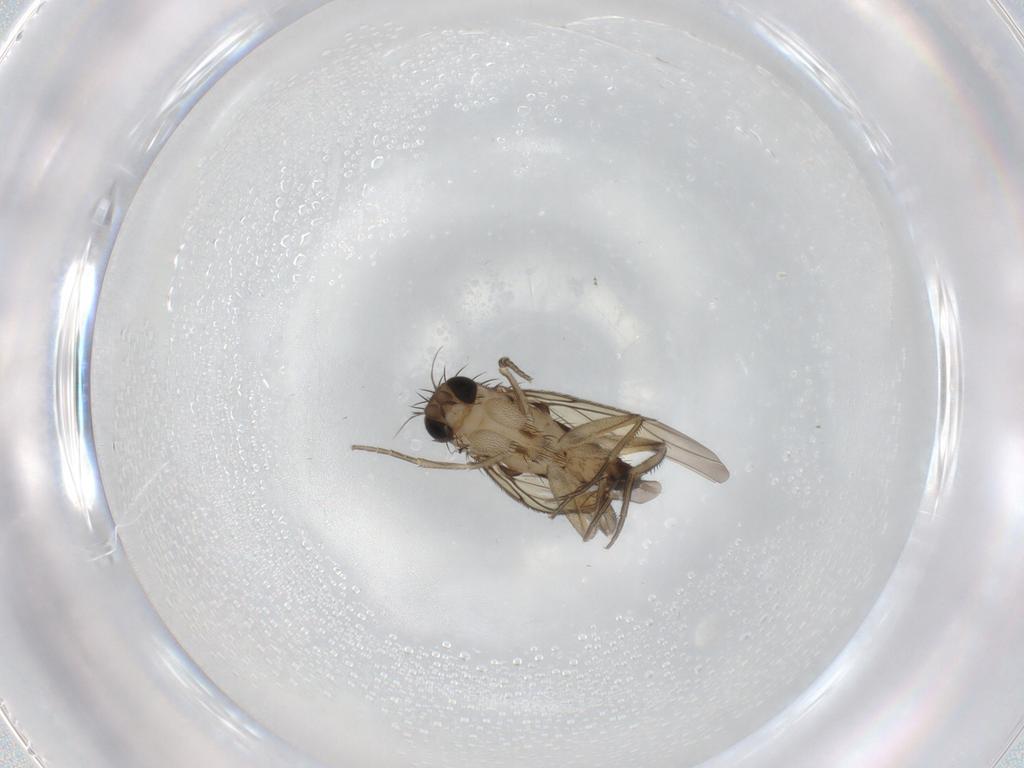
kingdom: Animalia
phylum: Arthropoda
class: Insecta
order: Diptera
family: Phoridae
